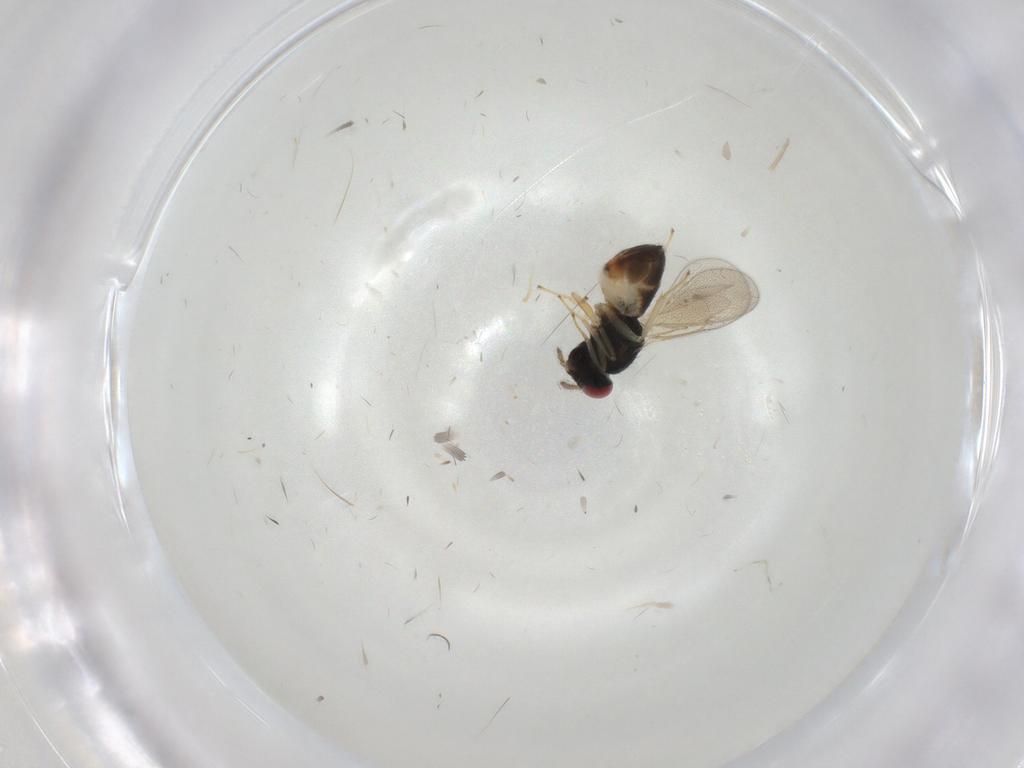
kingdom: Animalia
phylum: Arthropoda
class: Insecta
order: Hymenoptera
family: Eulophidae
